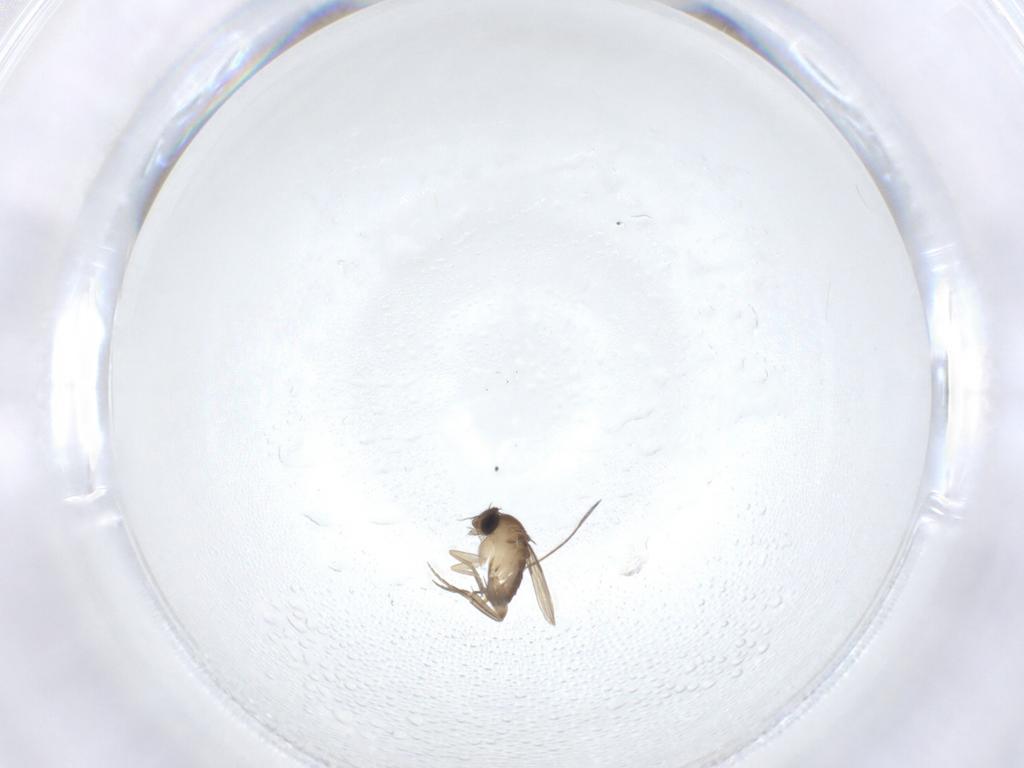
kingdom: Animalia
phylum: Arthropoda
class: Insecta
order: Diptera
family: Phoridae
